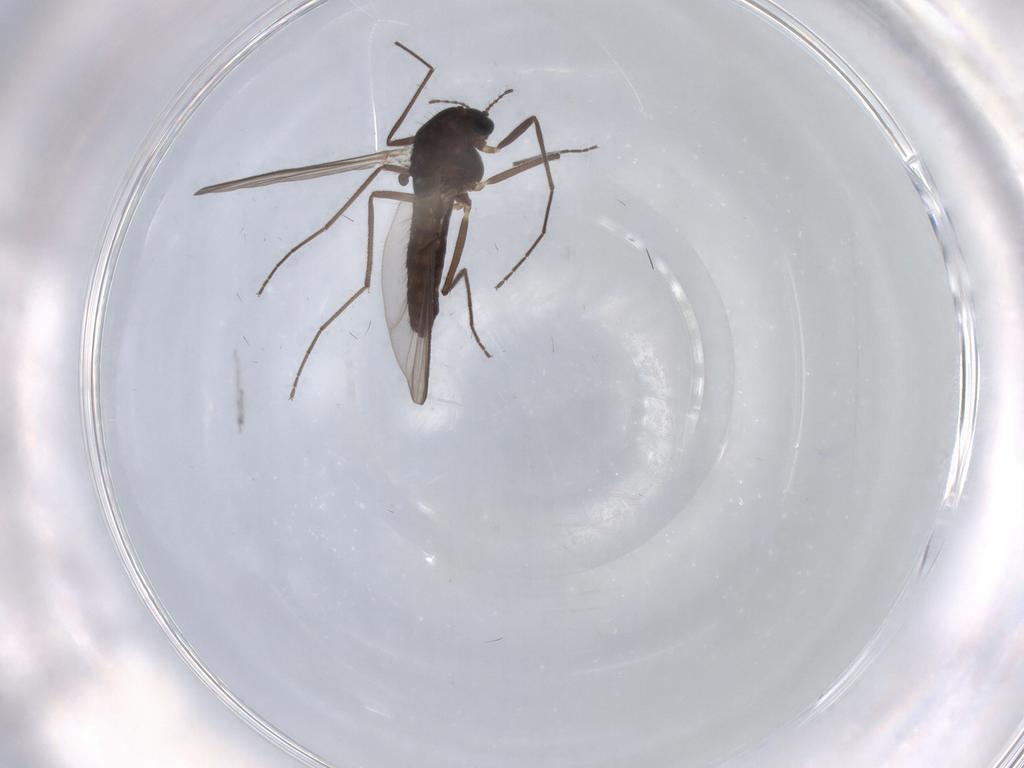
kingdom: Animalia
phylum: Arthropoda
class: Insecta
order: Diptera
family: Chironomidae
